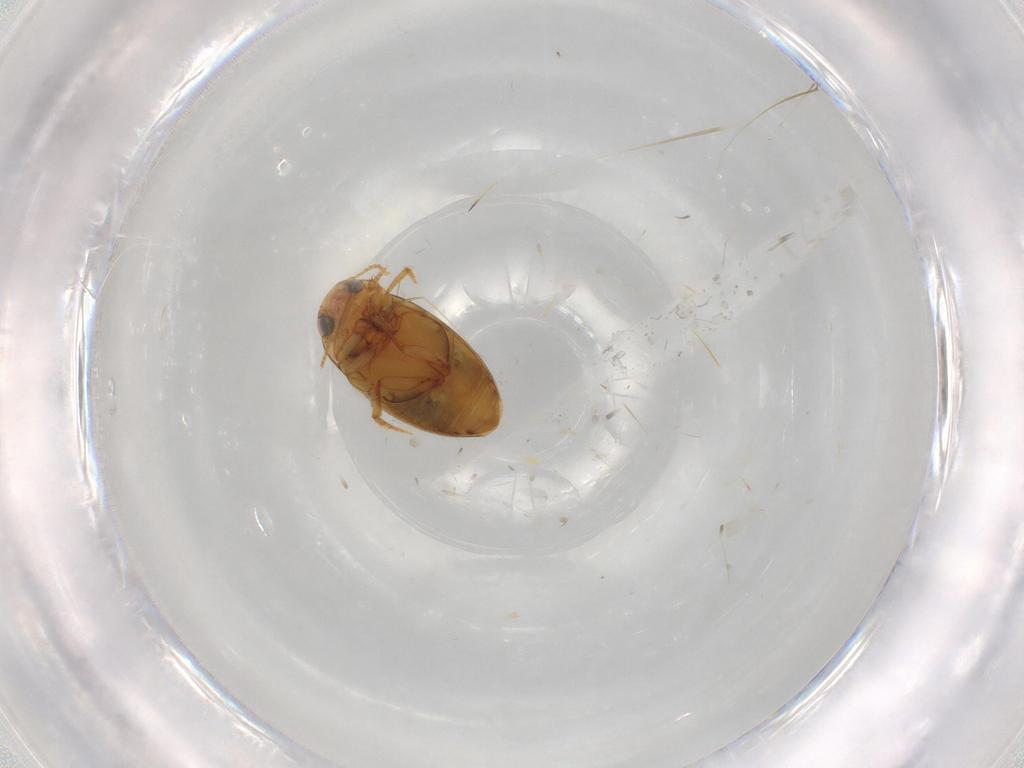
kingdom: Animalia
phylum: Arthropoda
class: Insecta
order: Coleoptera
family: Dytiscidae
